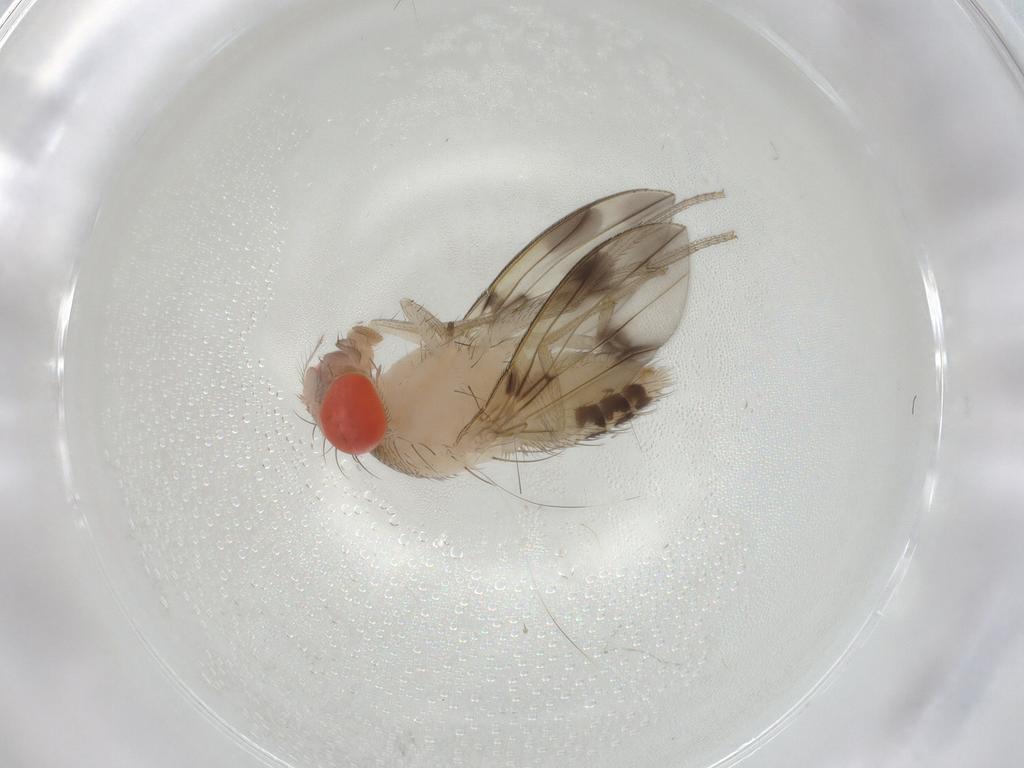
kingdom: Animalia
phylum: Arthropoda
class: Insecta
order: Diptera
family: Drosophilidae
